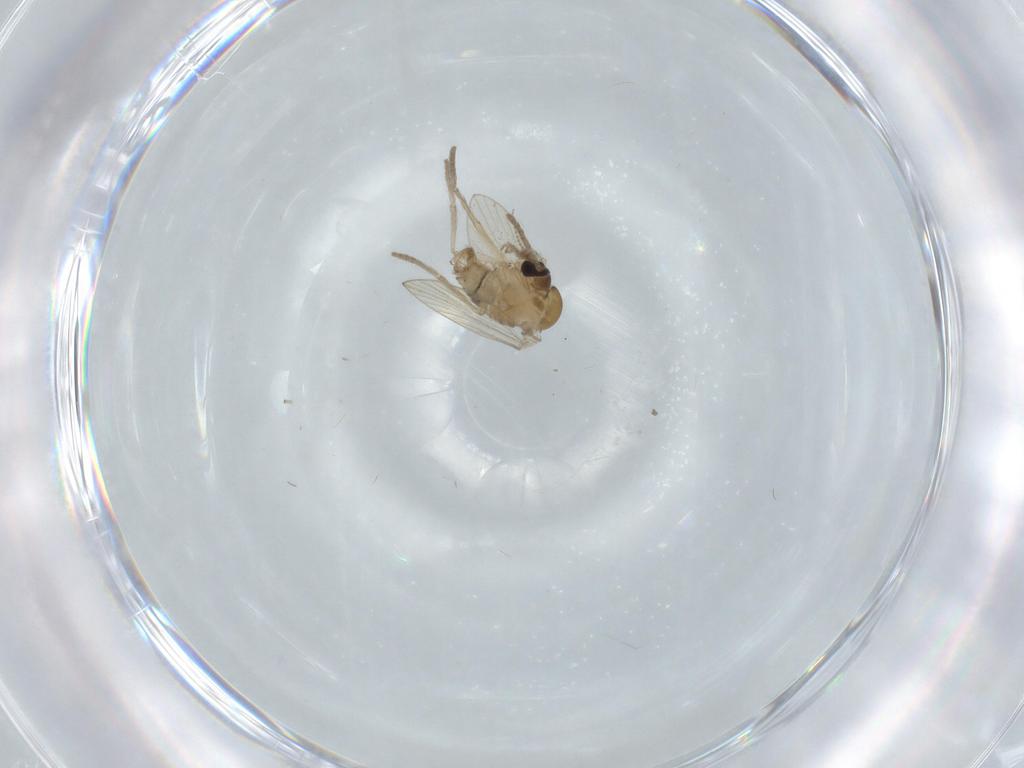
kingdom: Animalia
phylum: Arthropoda
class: Insecta
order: Diptera
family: Psychodidae
